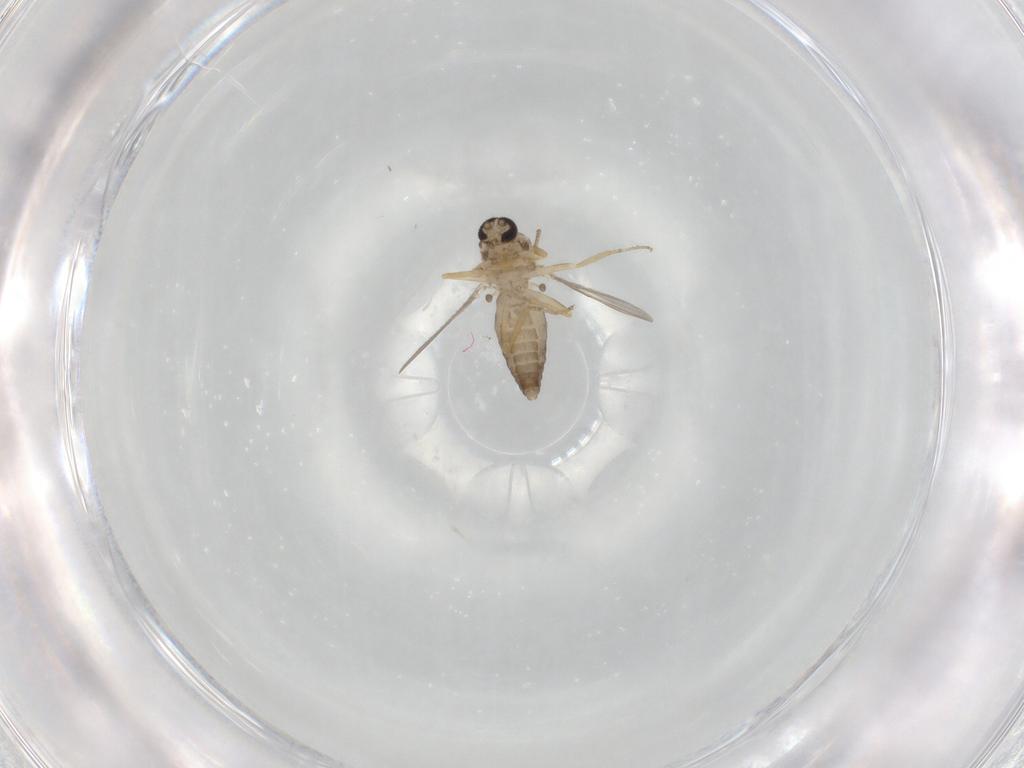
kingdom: Animalia
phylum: Arthropoda
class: Insecta
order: Diptera
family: Ceratopogonidae
